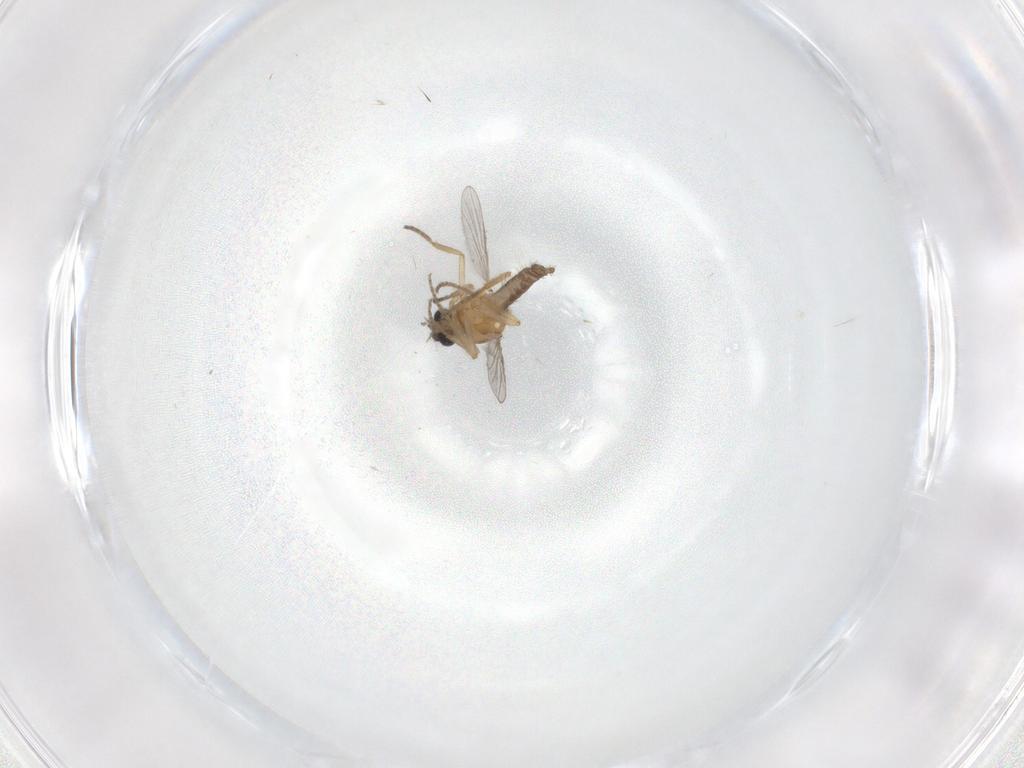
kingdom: Animalia
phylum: Arthropoda
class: Insecta
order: Diptera
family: Ceratopogonidae
